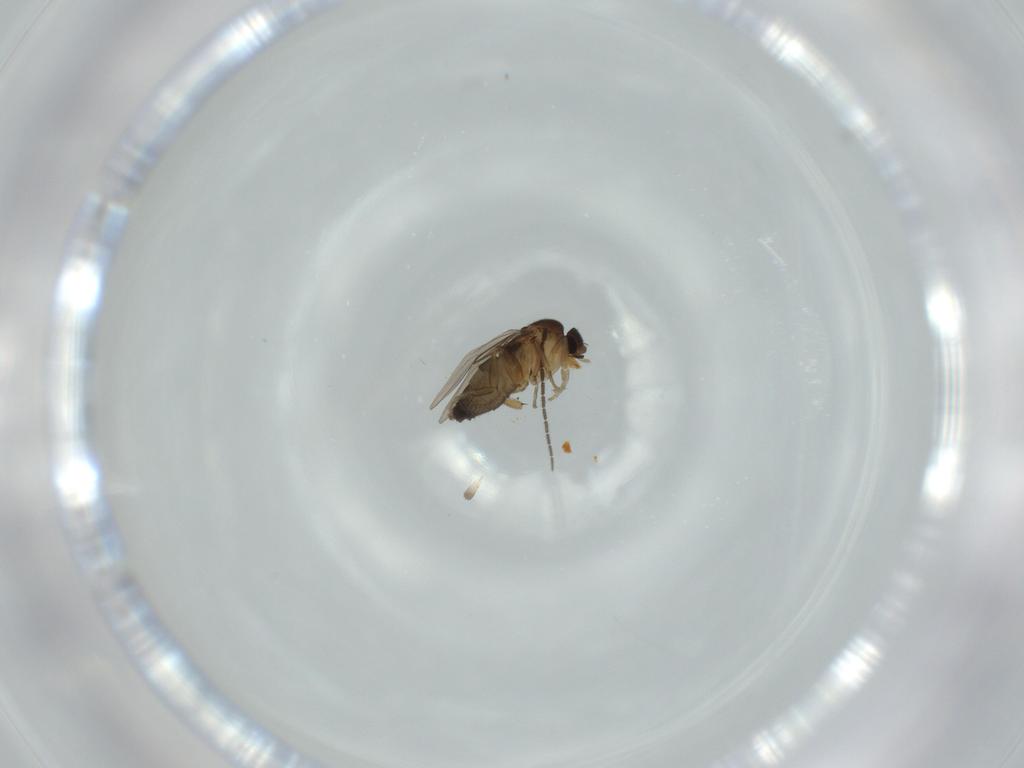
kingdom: Animalia
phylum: Arthropoda
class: Insecta
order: Diptera
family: Phoridae
